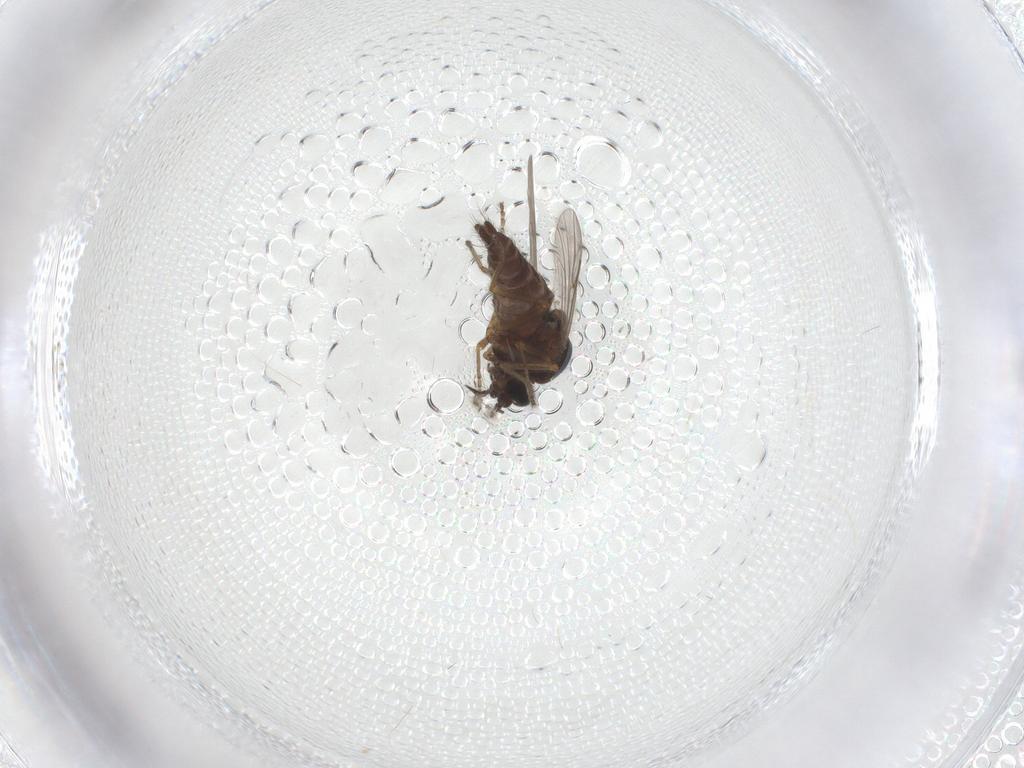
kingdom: Animalia
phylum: Arthropoda
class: Insecta
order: Diptera
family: Ceratopogonidae
